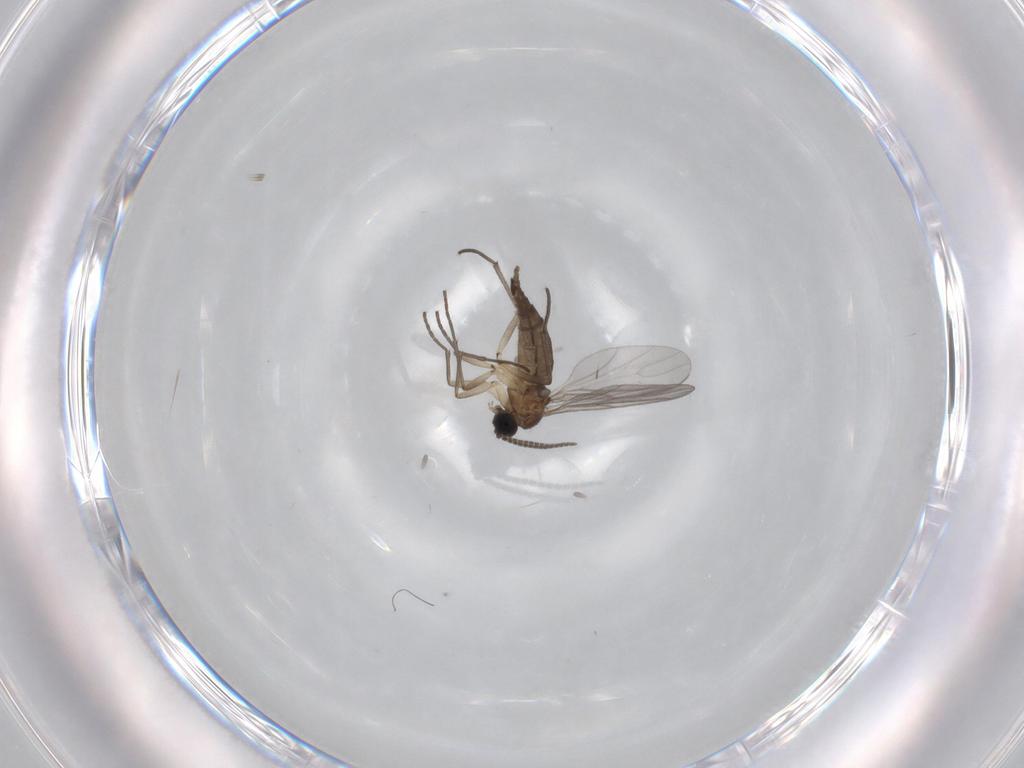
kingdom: Animalia
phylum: Arthropoda
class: Insecta
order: Diptera
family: Sciaridae
